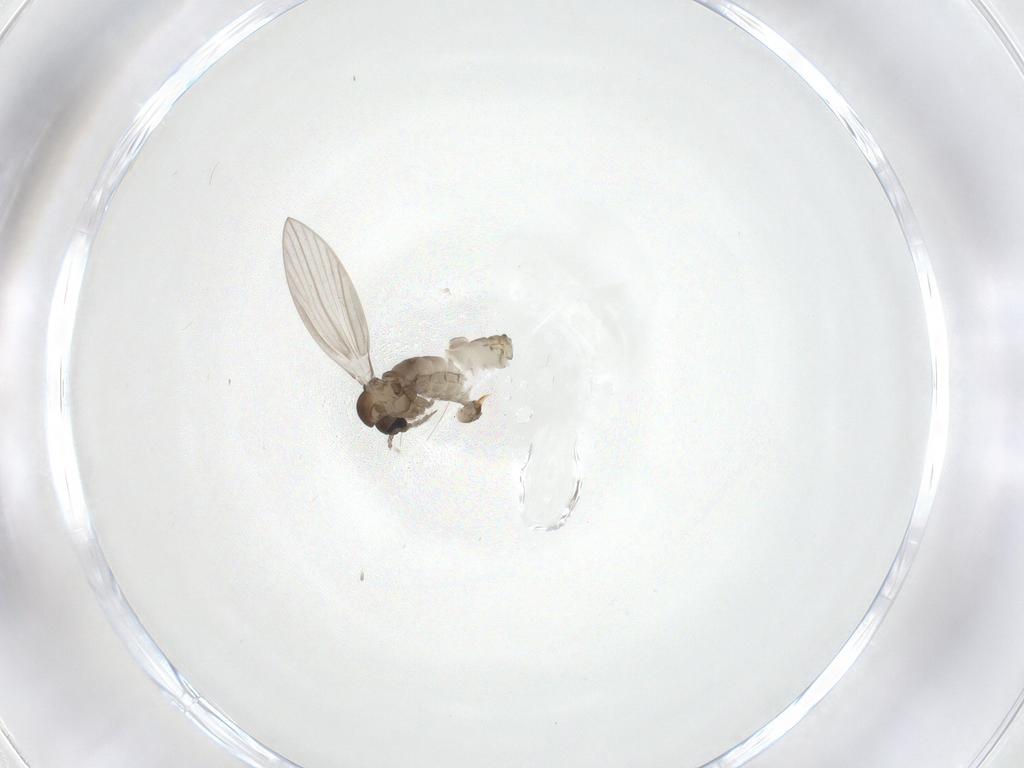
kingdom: Animalia
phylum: Arthropoda
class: Insecta
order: Diptera
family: Psychodidae
